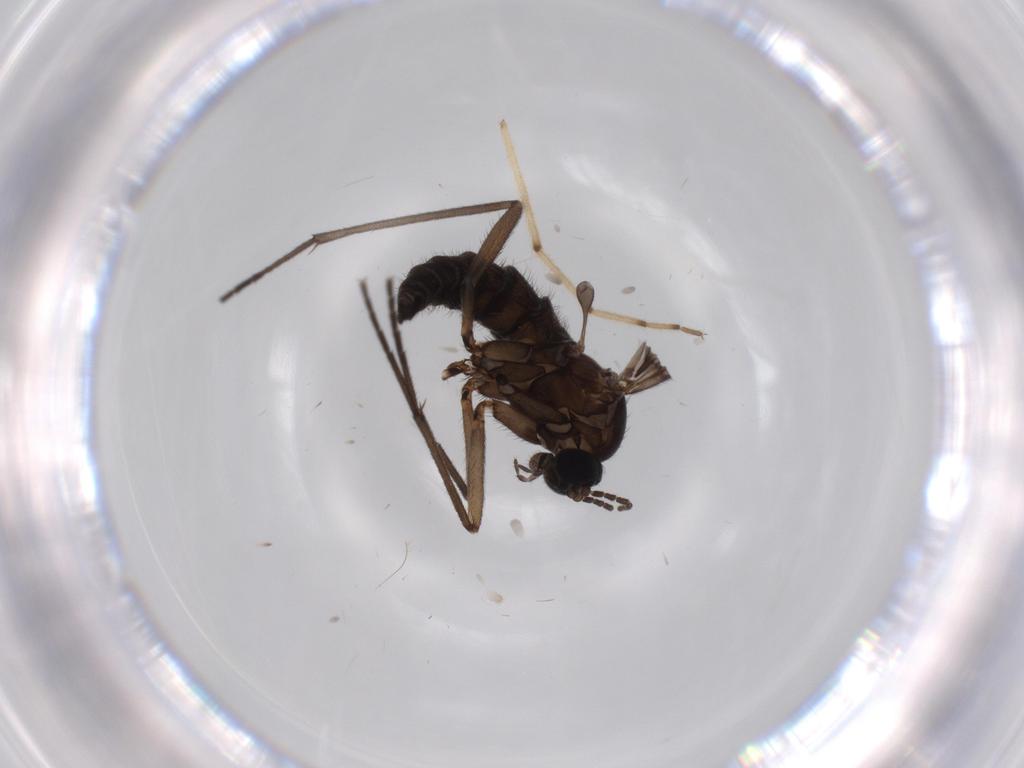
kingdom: Animalia
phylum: Arthropoda
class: Insecta
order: Diptera
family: Sciaridae
